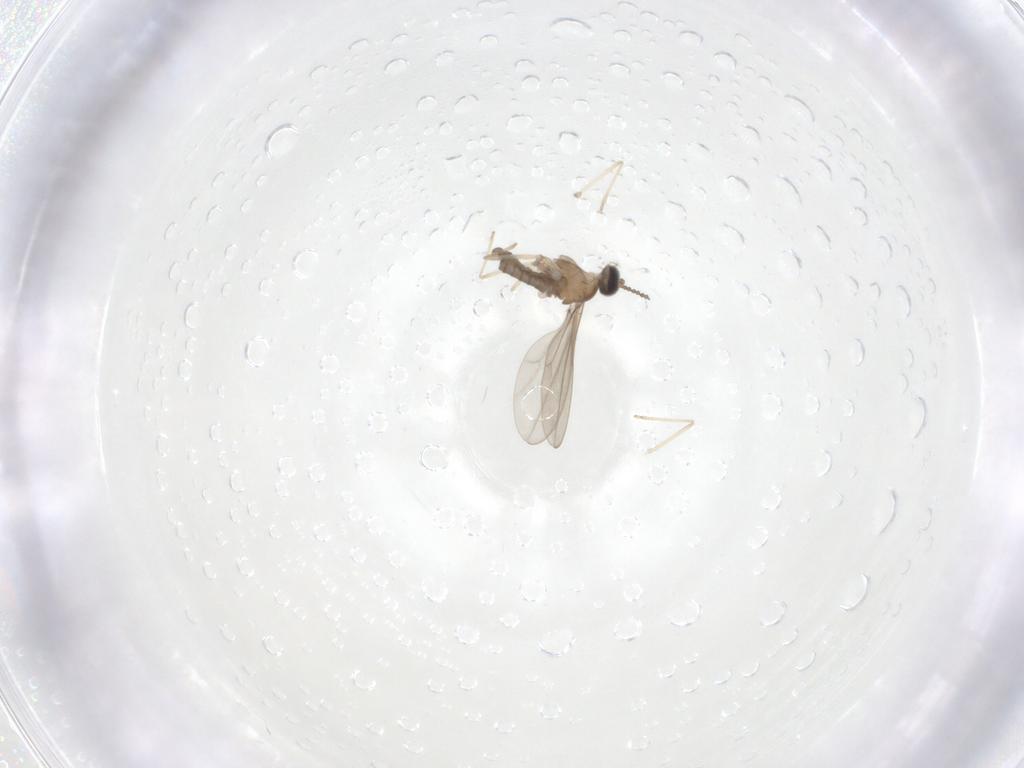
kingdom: Animalia
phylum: Arthropoda
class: Insecta
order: Diptera
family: Cecidomyiidae
